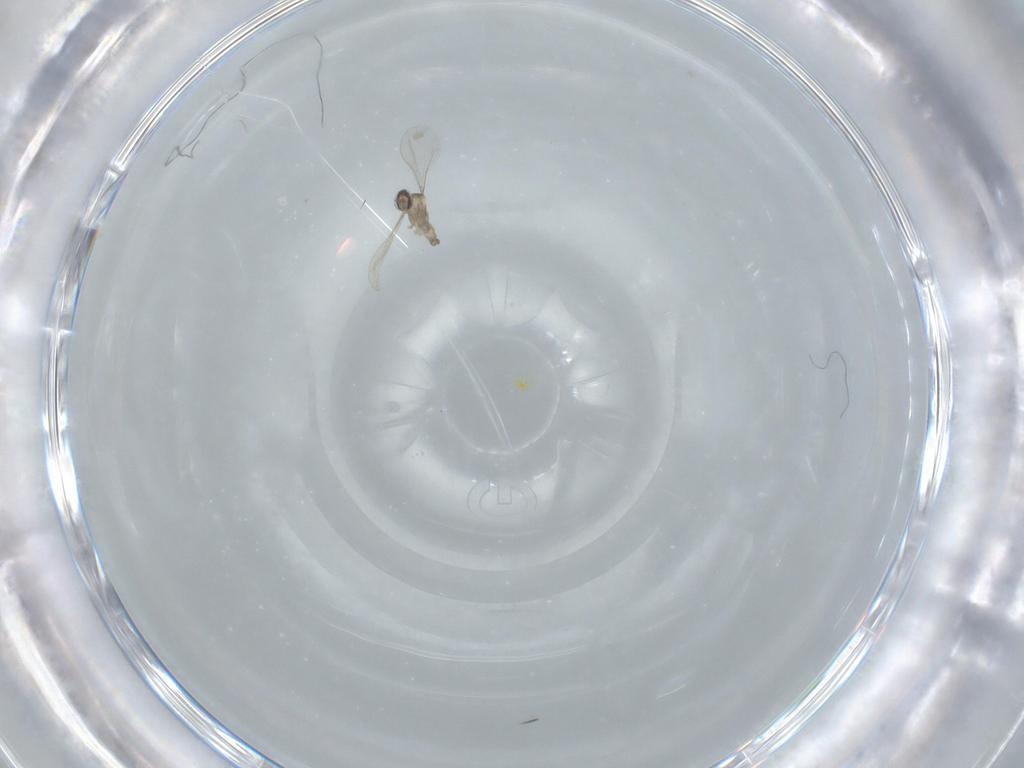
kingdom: Animalia
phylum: Arthropoda
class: Insecta
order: Diptera
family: Cecidomyiidae
